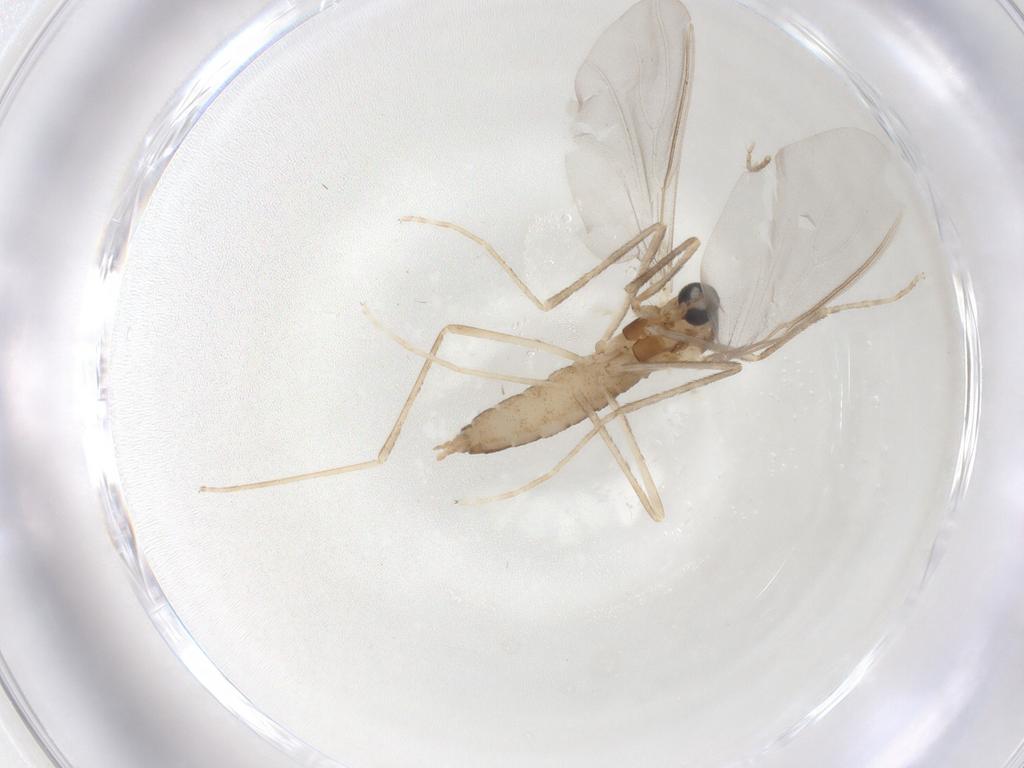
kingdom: Animalia
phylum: Arthropoda
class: Insecta
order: Diptera
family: Cecidomyiidae
